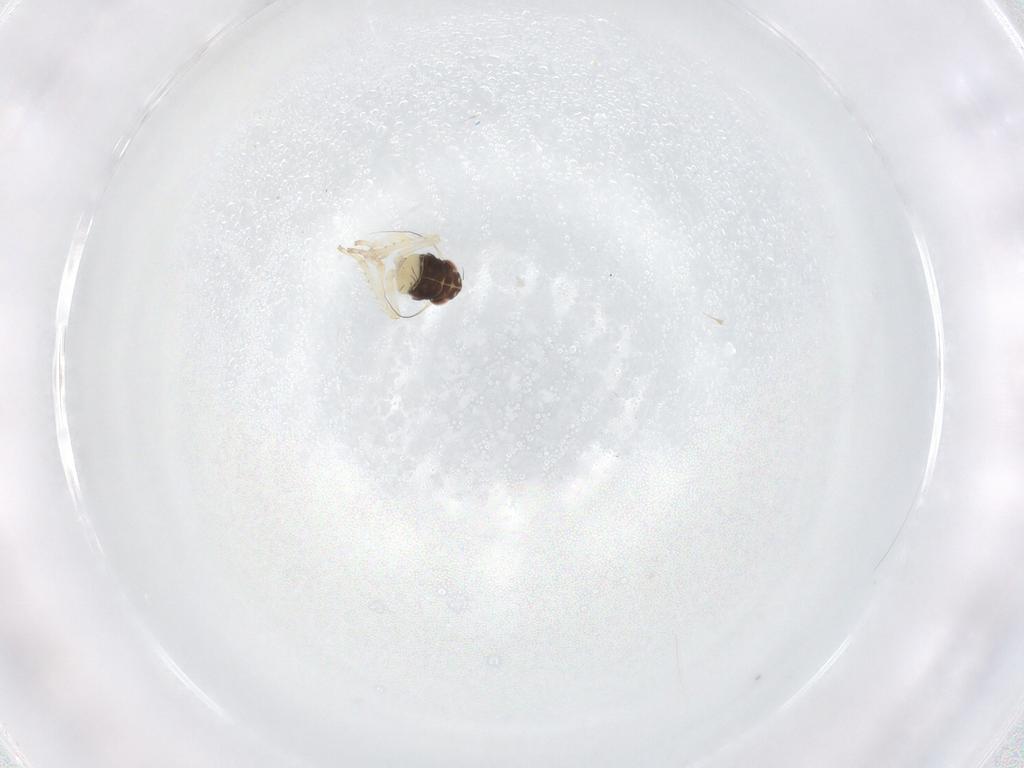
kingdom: Animalia
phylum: Arthropoda
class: Insecta
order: Hemiptera
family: Cicadellidae
